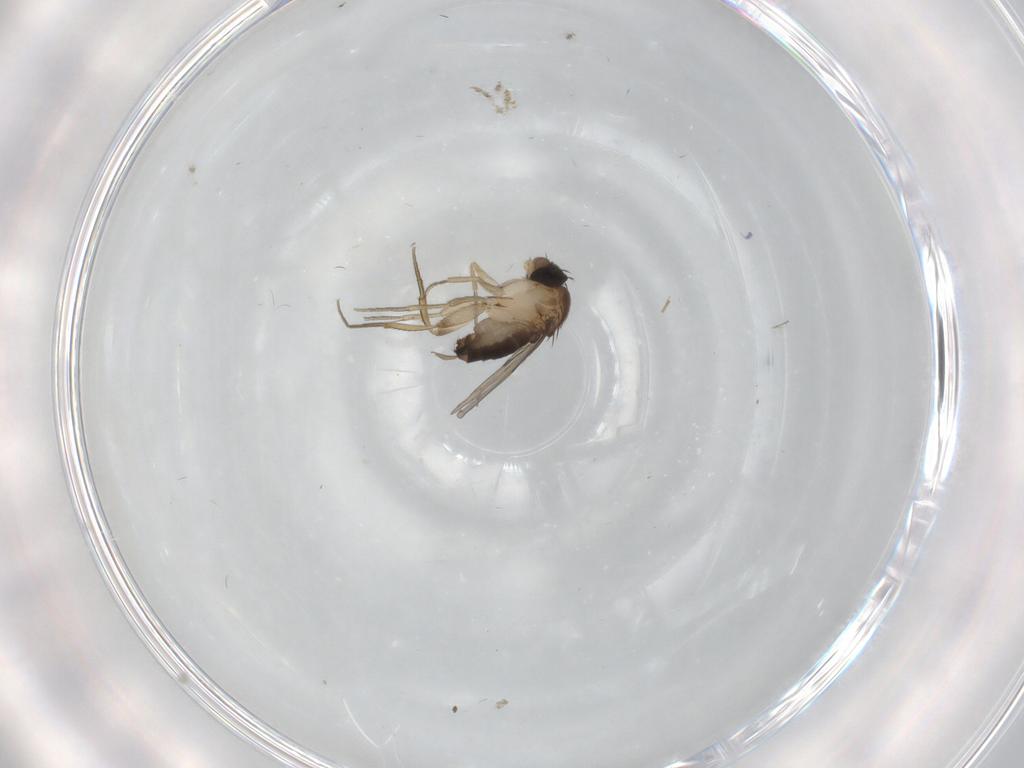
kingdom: Animalia
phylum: Arthropoda
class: Insecta
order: Diptera
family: Cecidomyiidae
